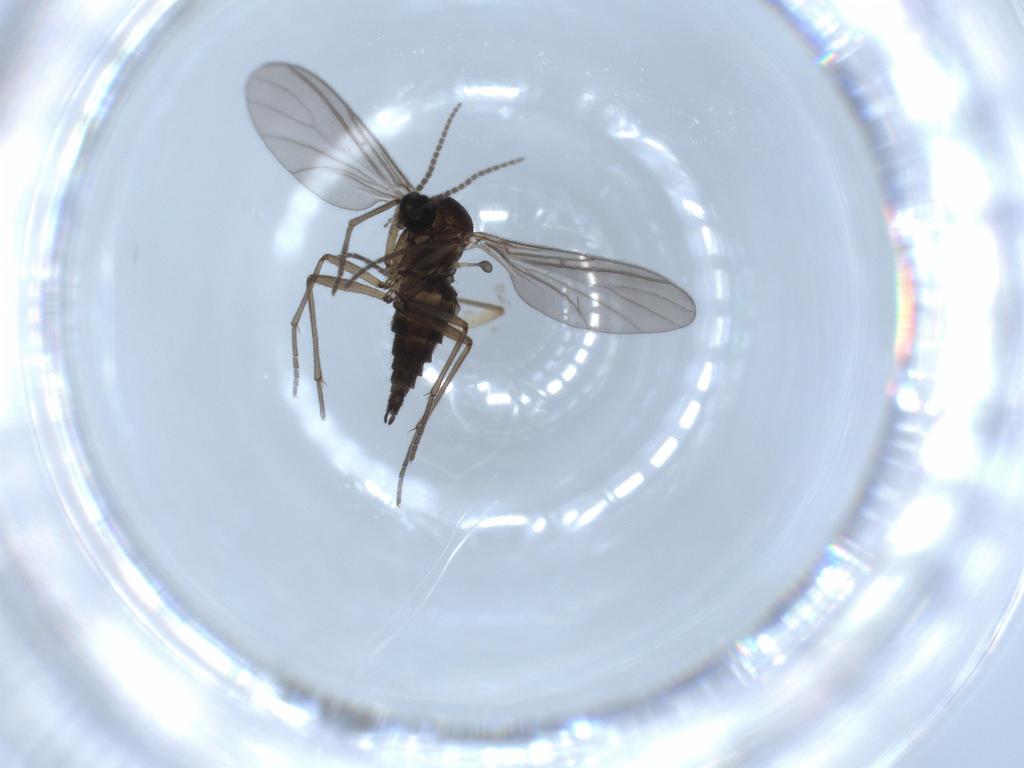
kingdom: Animalia
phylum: Arthropoda
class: Insecta
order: Diptera
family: Sciaridae
